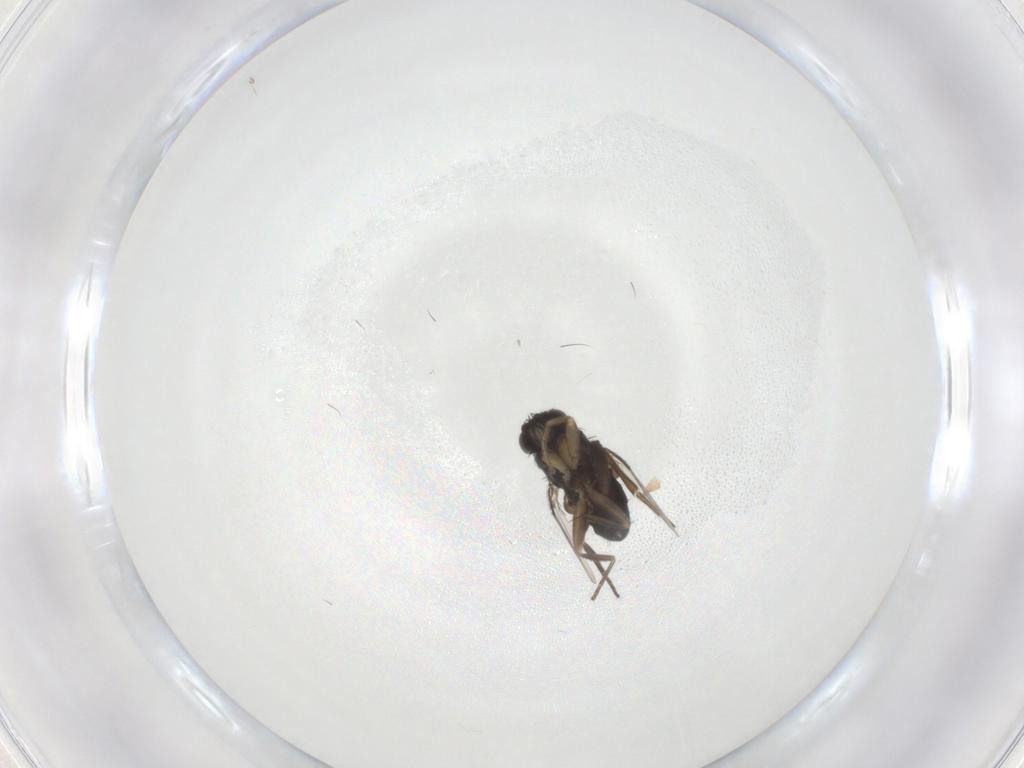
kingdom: Animalia
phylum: Arthropoda
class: Insecta
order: Diptera
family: Phoridae
